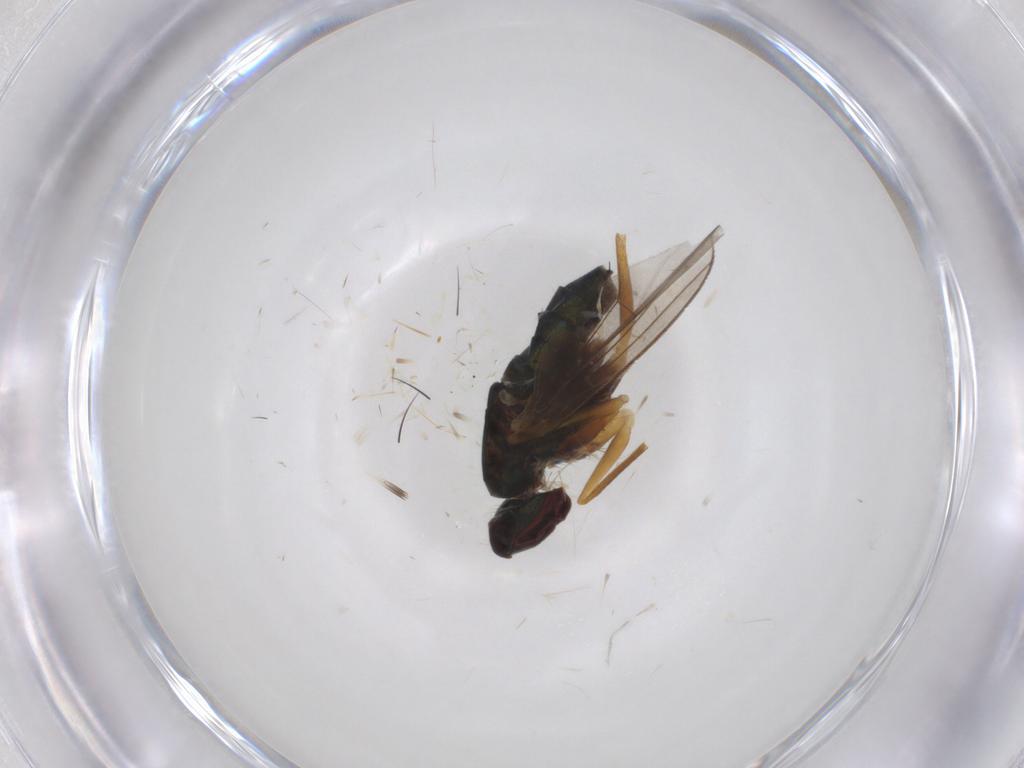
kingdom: Animalia
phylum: Arthropoda
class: Insecta
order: Diptera
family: Dolichopodidae
